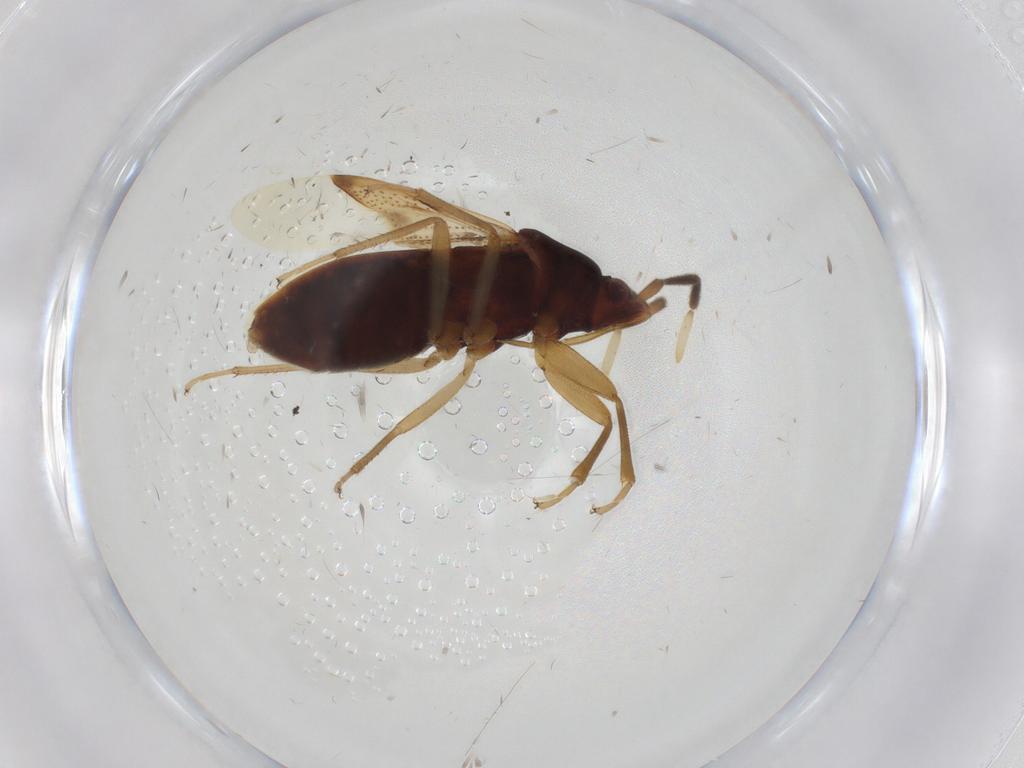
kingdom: Animalia
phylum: Arthropoda
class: Insecta
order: Hemiptera
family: Rhyparochromidae
